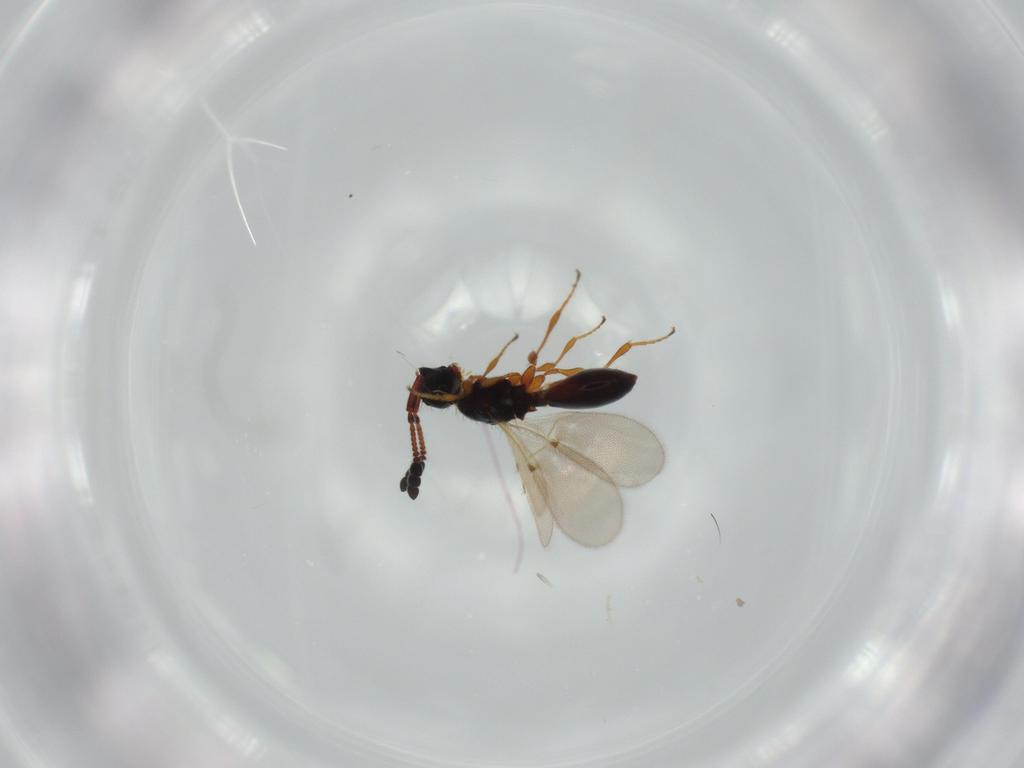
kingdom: Animalia
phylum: Arthropoda
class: Insecta
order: Hymenoptera
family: Diapriidae
